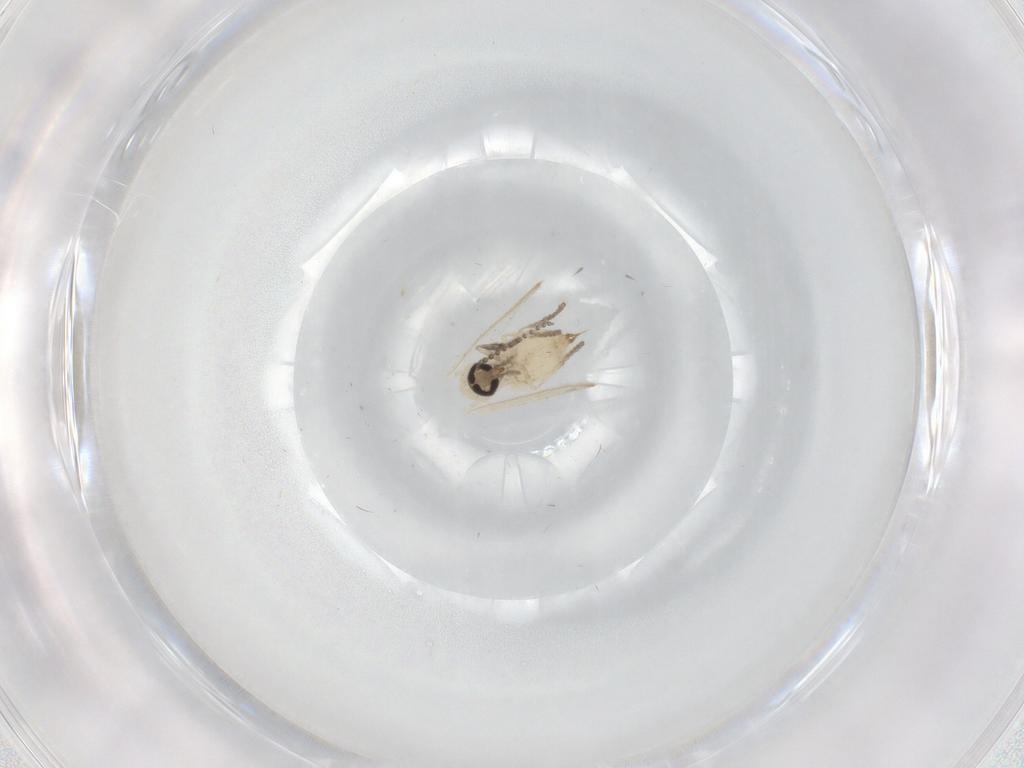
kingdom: Animalia
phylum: Arthropoda
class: Insecta
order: Diptera
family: Psychodidae
